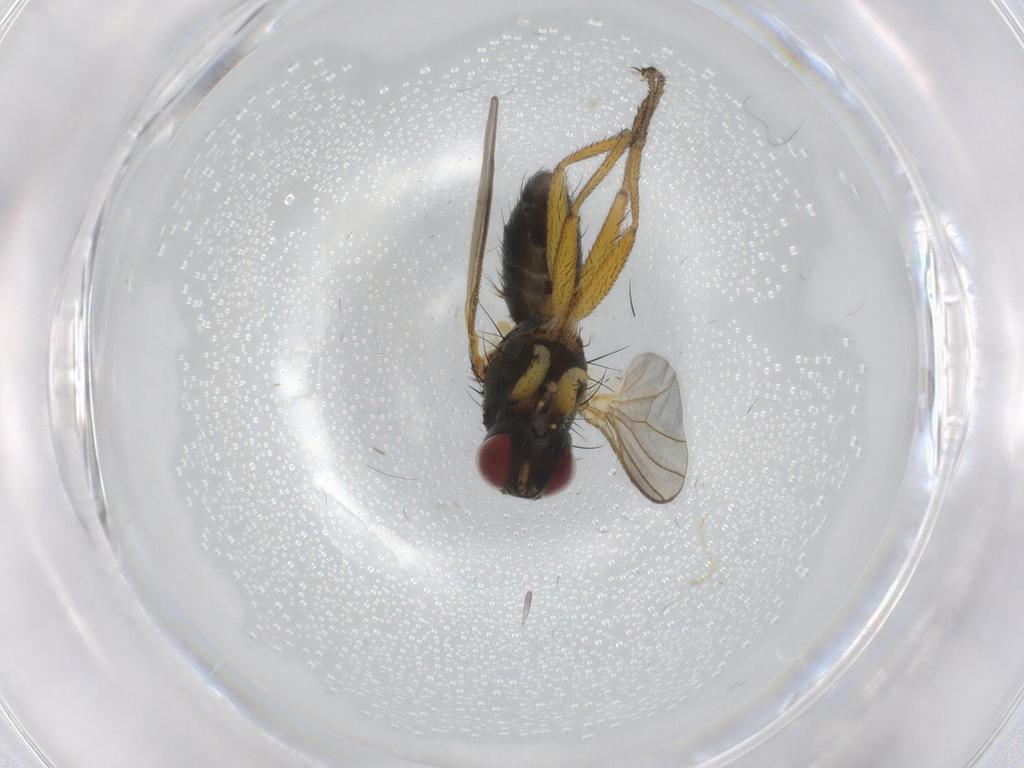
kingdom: Animalia
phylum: Arthropoda
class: Insecta
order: Diptera
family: Muscidae
